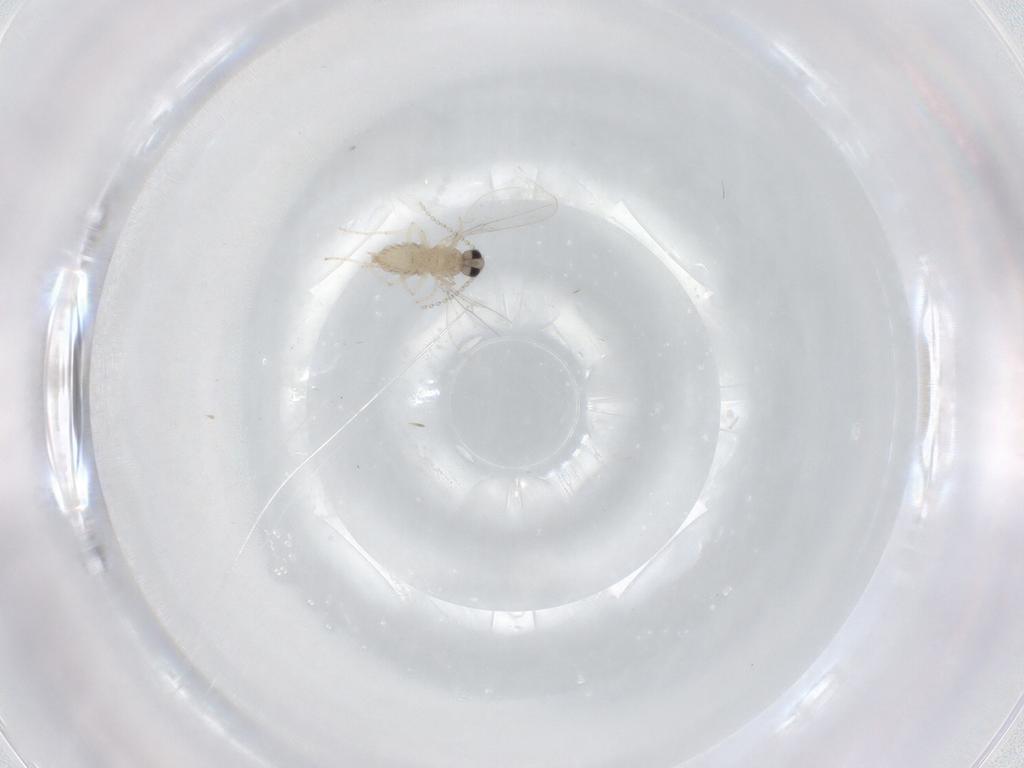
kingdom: Animalia
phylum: Arthropoda
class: Insecta
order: Diptera
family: Cecidomyiidae
